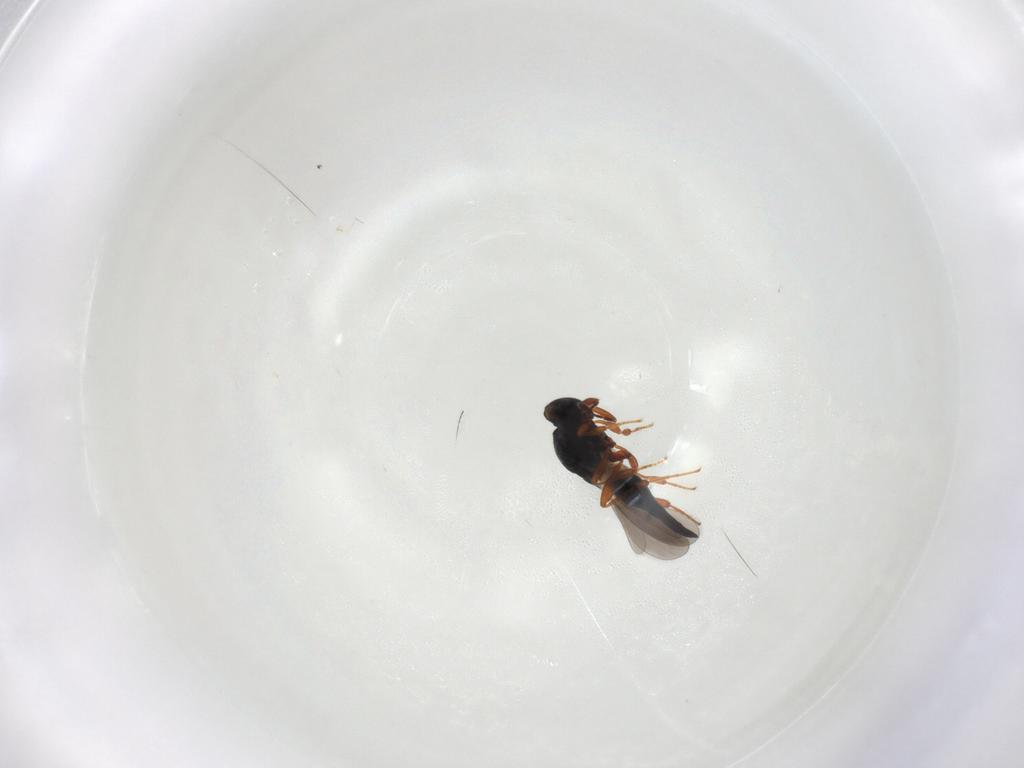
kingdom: Animalia
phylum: Arthropoda
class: Insecta
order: Hymenoptera
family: Platygastridae
